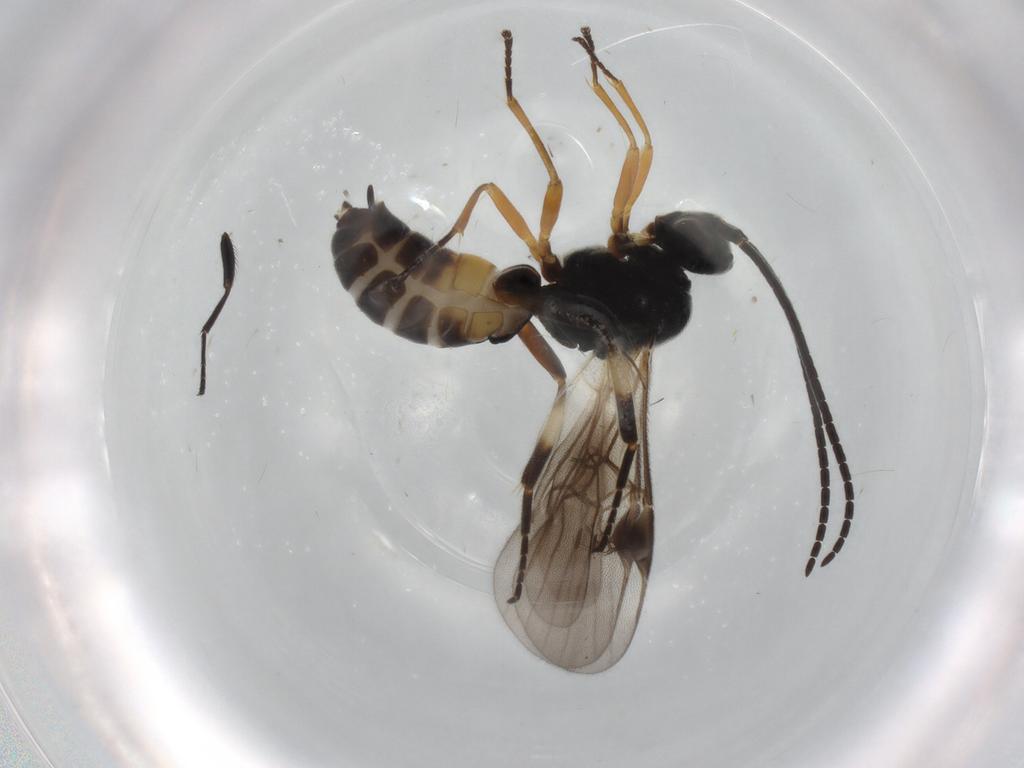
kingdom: Animalia
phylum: Arthropoda
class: Insecta
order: Hymenoptera
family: Braconidae
